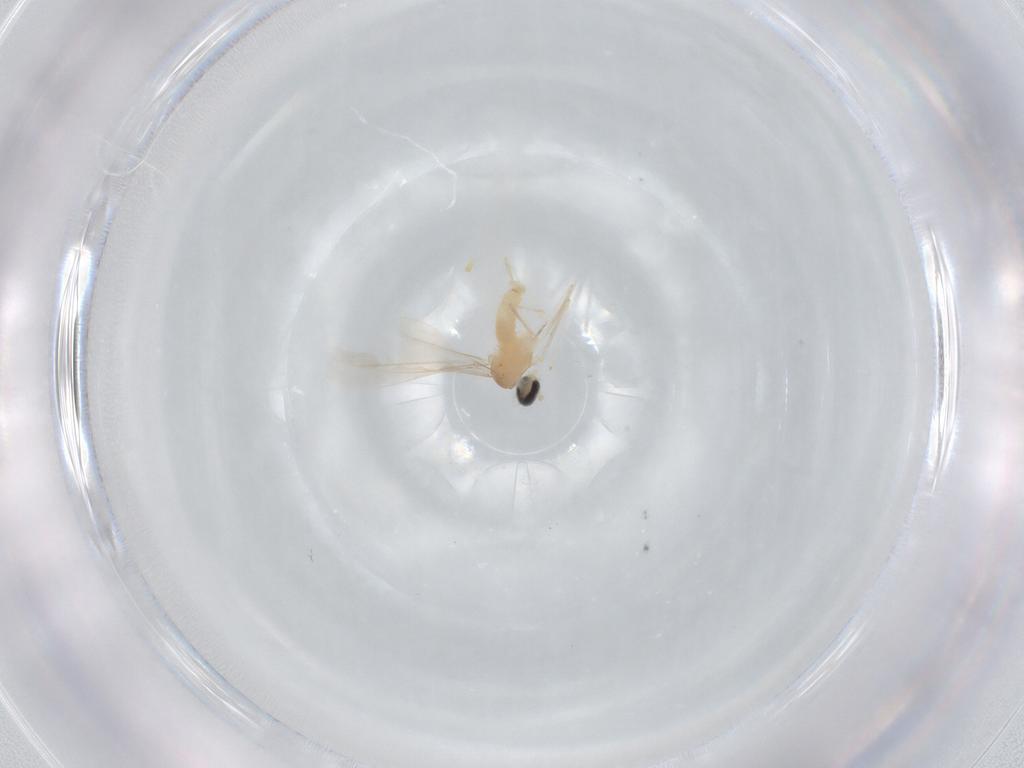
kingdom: Animalia
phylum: Arthropoda
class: Insecta
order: Diptera
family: Cecidomyiidae
